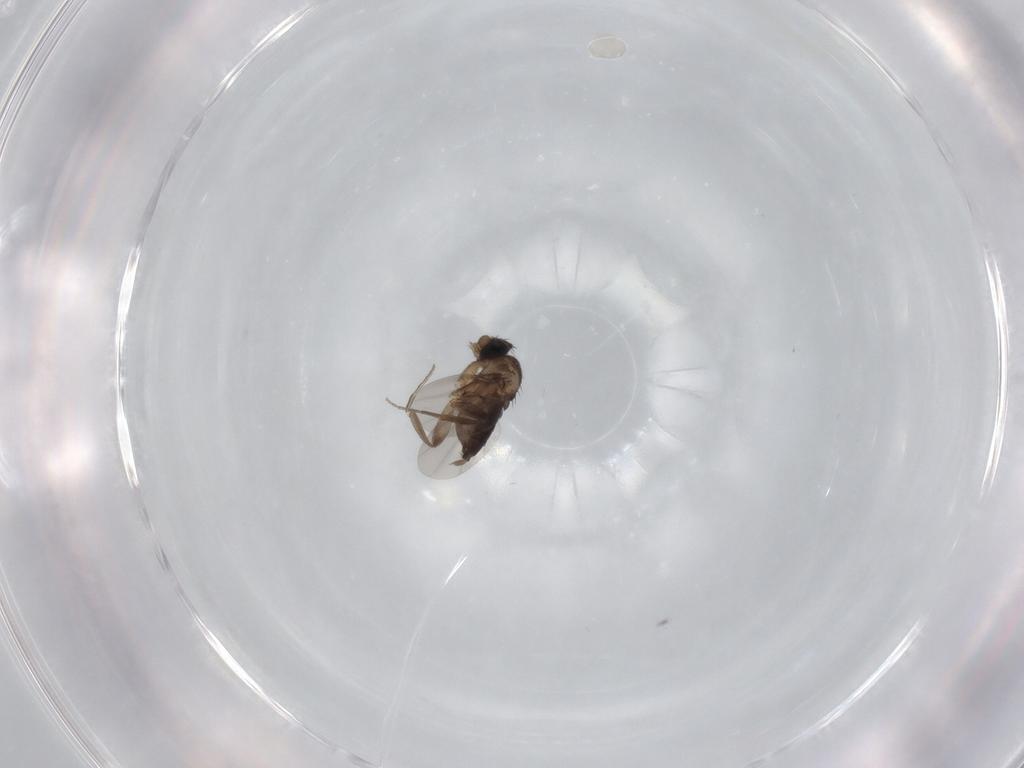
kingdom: Animalia
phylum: Arthropoda
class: Insecta
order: Diptera
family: Phoridae
